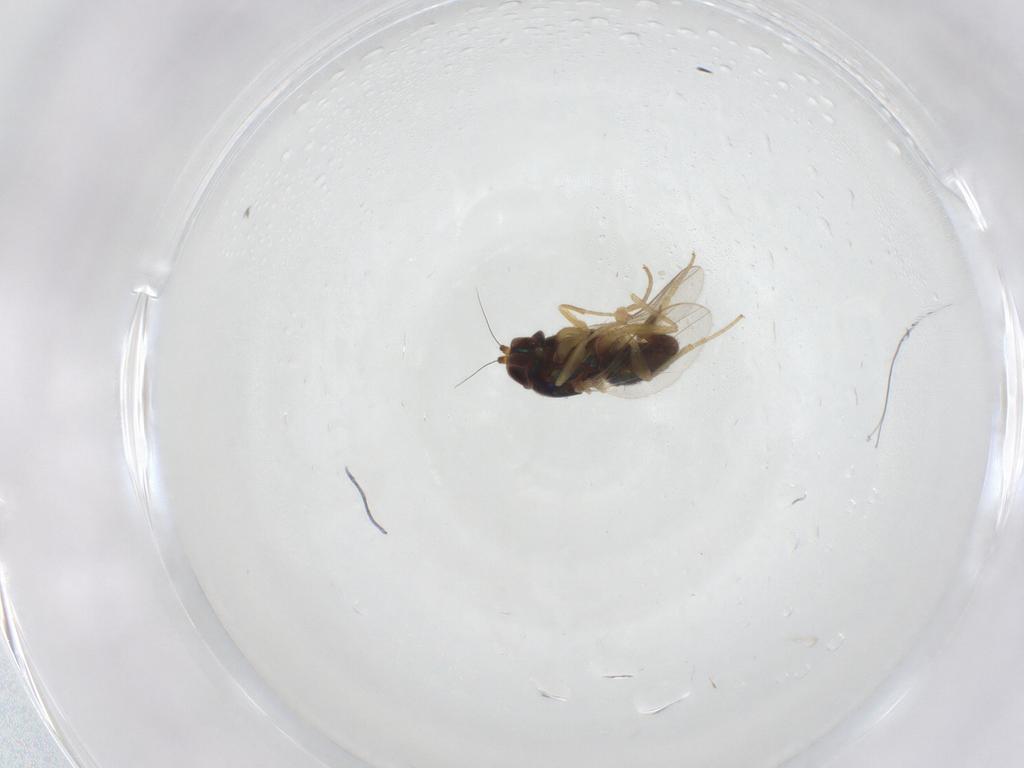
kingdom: Animalia
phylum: Arthropoda
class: Insecta
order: Diptera
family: Dolichopodidae
